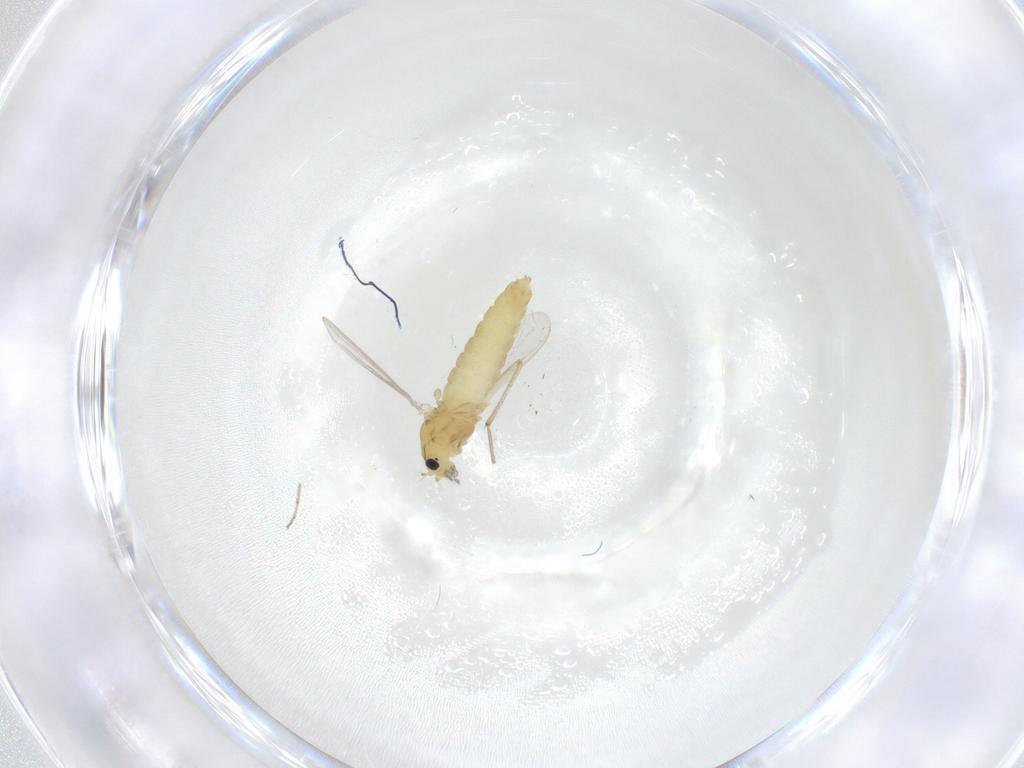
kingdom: Animalia
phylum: Arthropoda
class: Insecta
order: Diptera
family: Chironomidae
